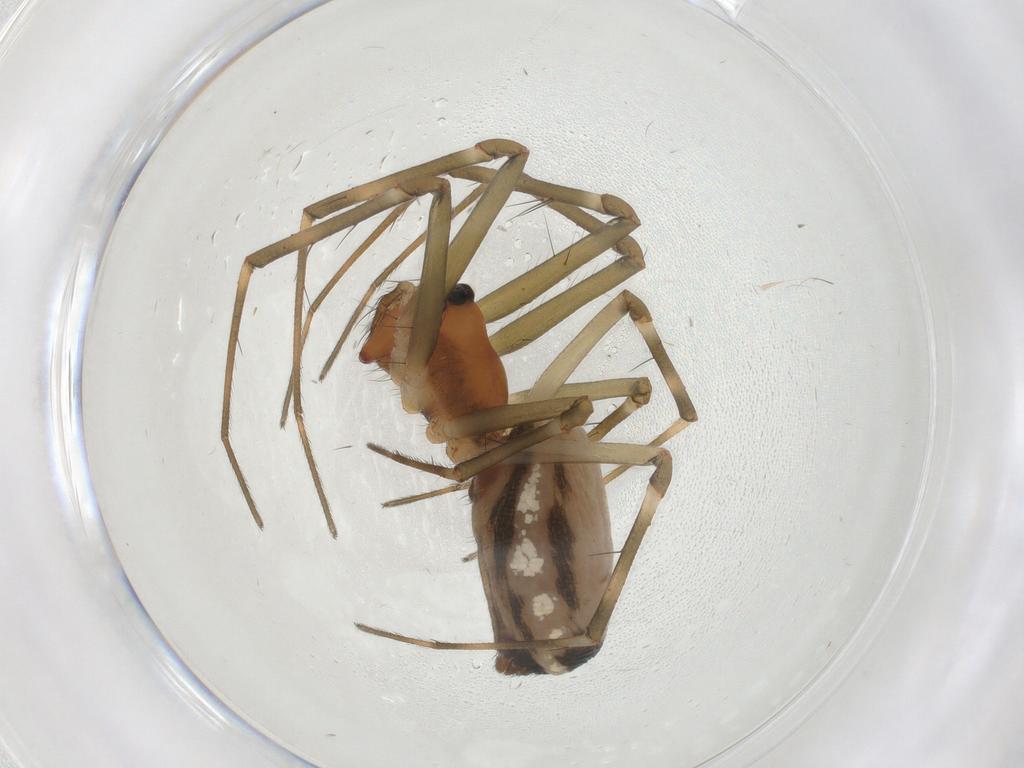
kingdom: Animalia
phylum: Arthropoda
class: Arachnida
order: Araneae
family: Linyphiidae
